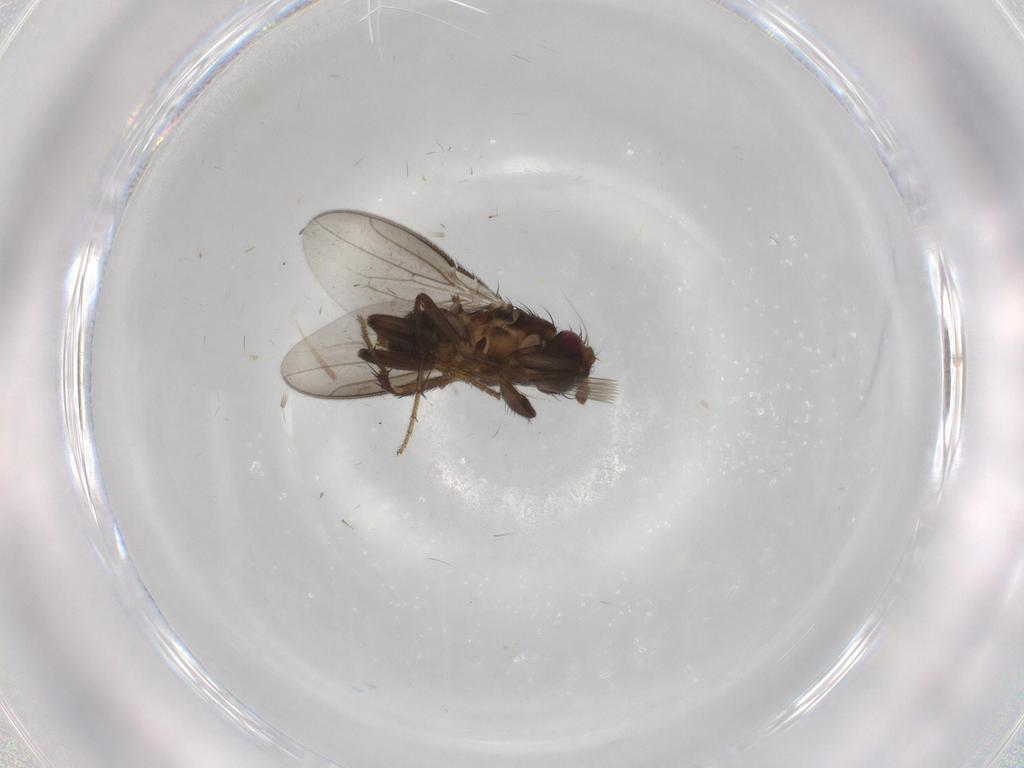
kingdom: Animalia
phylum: Arthropoda
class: Insecta
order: Diptera
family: Sphaeroceridae
